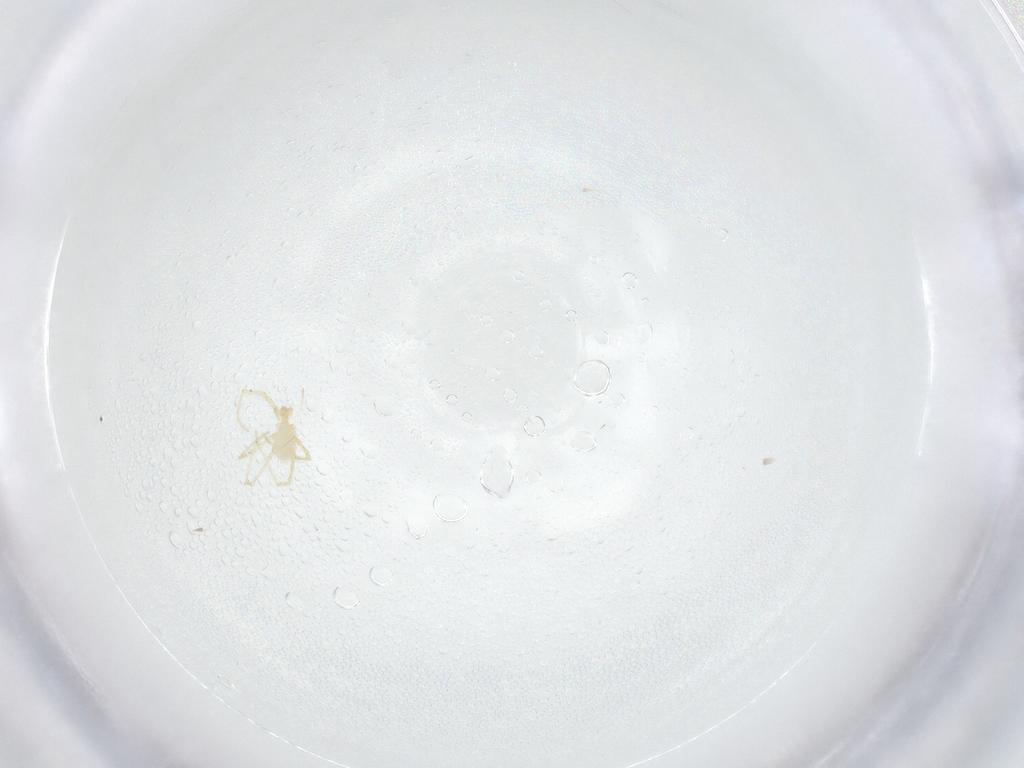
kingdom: Animalia
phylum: Arthropoda
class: Arachnida
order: Trombidiformes
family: Erythraeidae
